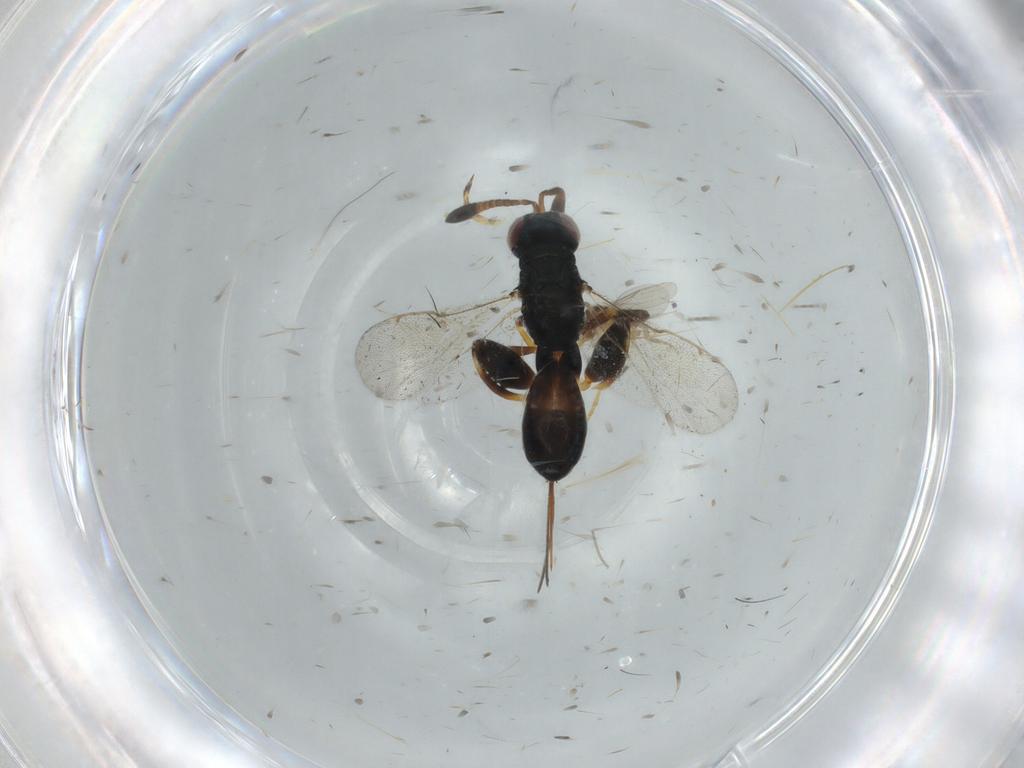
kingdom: Animalia
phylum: Arthropoda
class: Insecta
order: Hymenoptera
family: Torymidae
